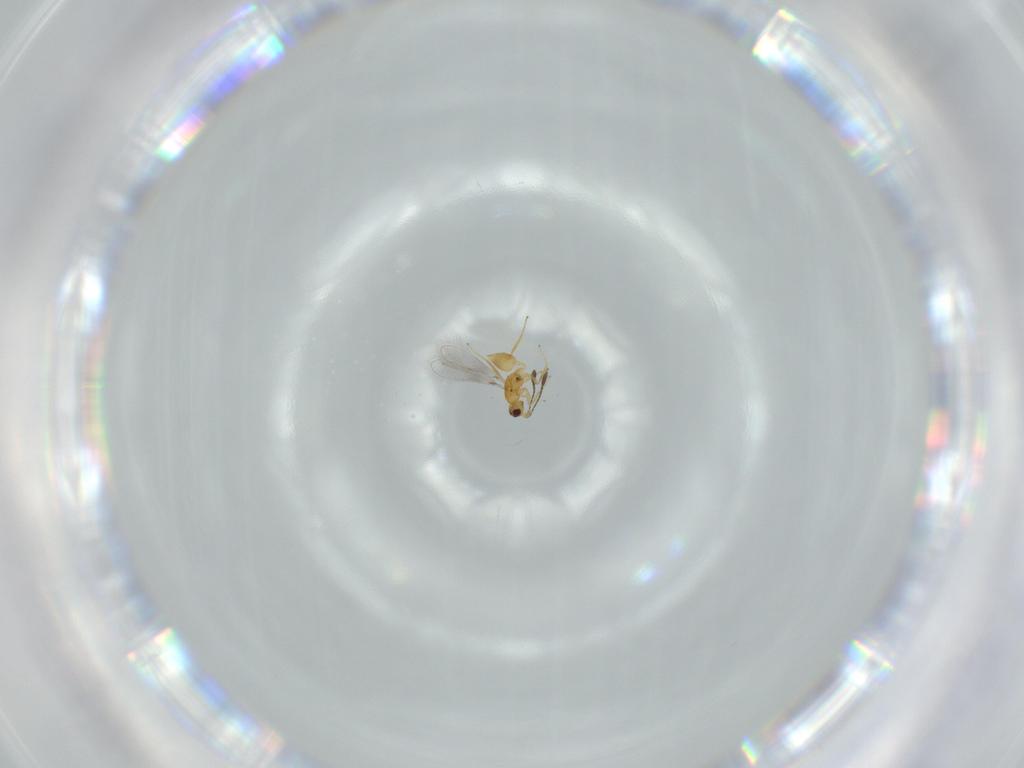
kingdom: Animalia
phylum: Arthropoda
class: Insecta
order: Hymenoptera
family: Mymaridae
